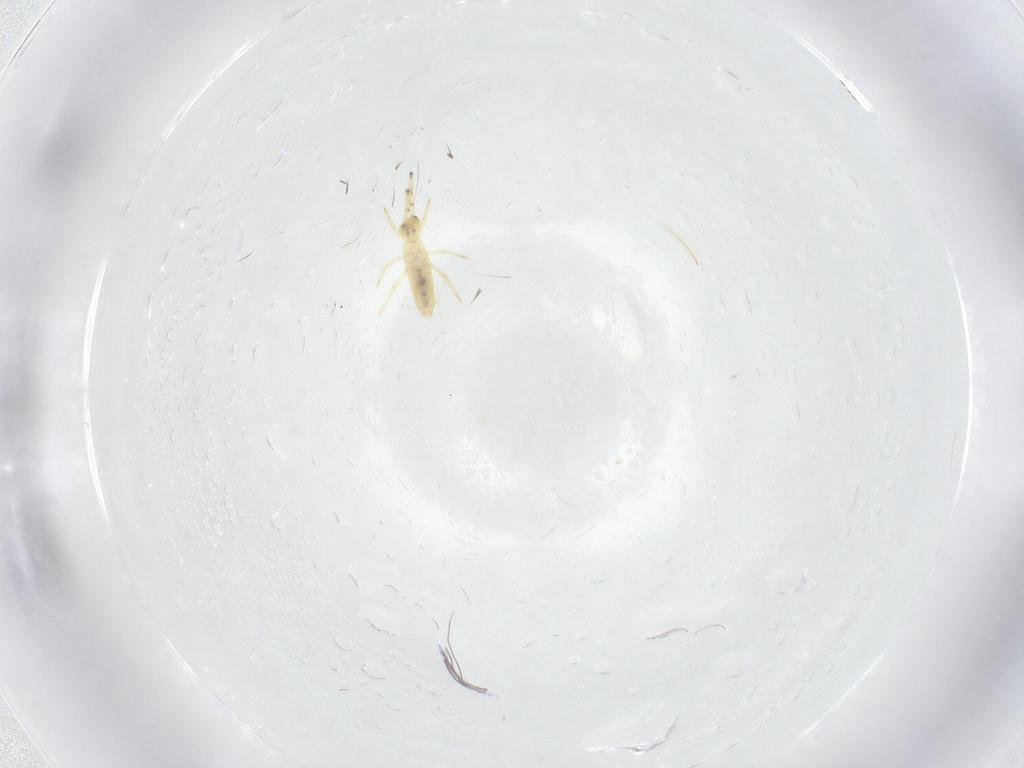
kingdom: Animalia
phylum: Arthropoda
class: Collembola
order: Entomobryomorpha
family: Paronellidae
